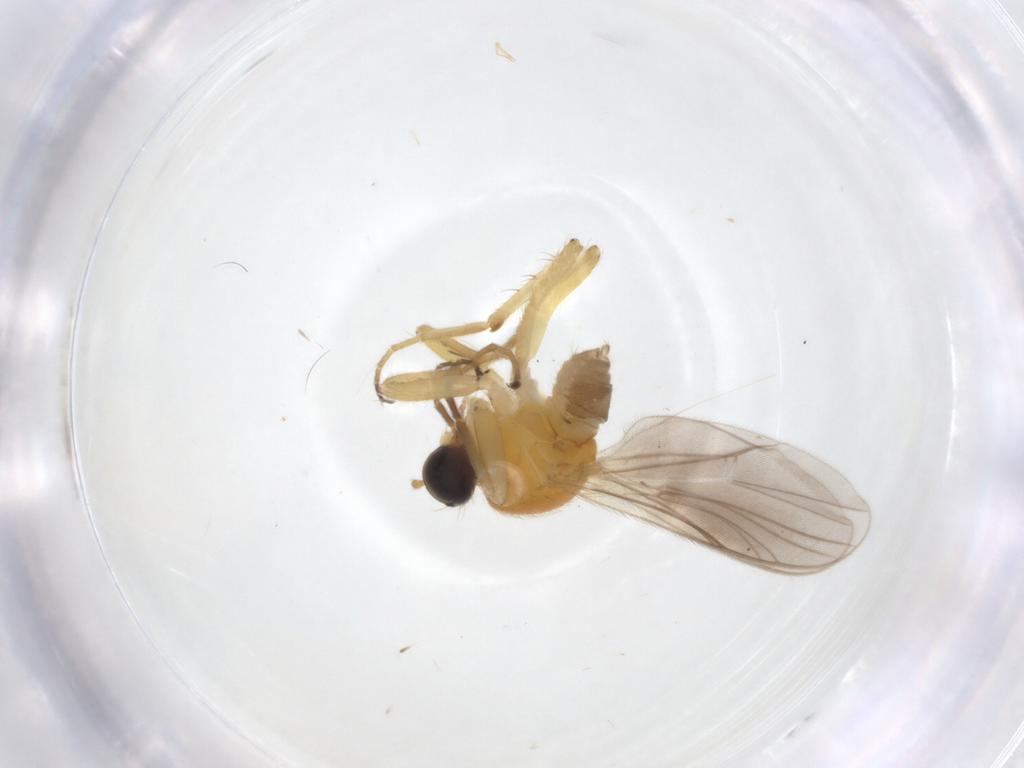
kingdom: Animalia
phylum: Arthropoda
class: Insecta
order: Diptera
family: Hybotidae
